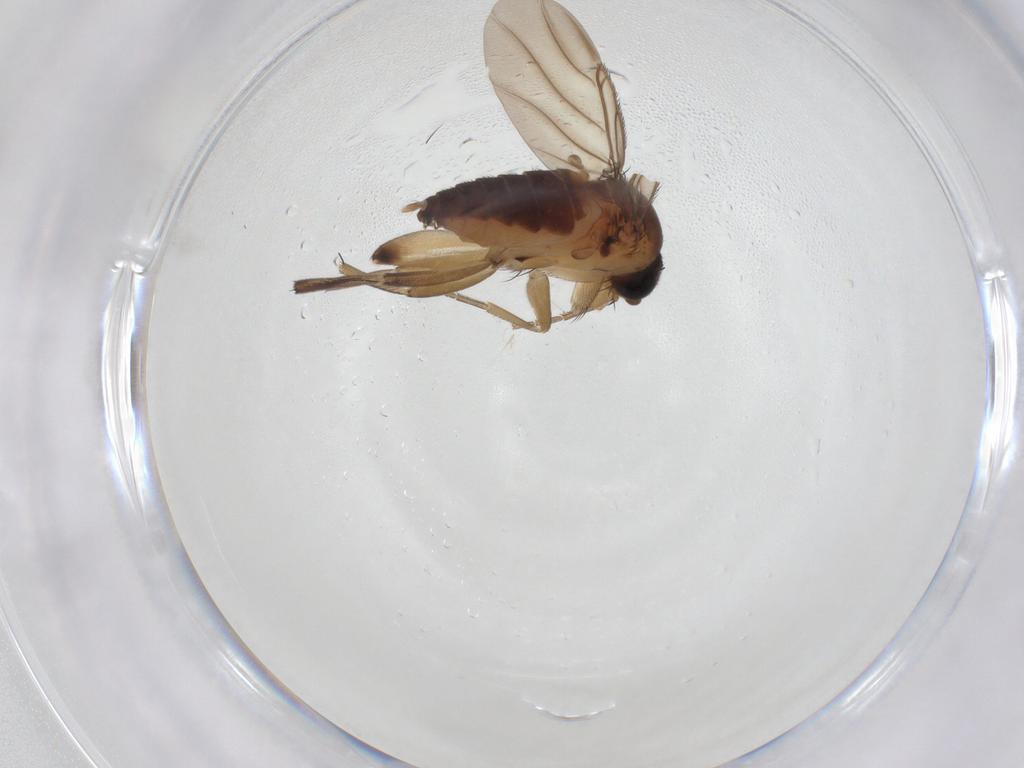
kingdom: Animalia
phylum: Arthropoda
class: Insecta
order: Diptera
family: Phoridae
